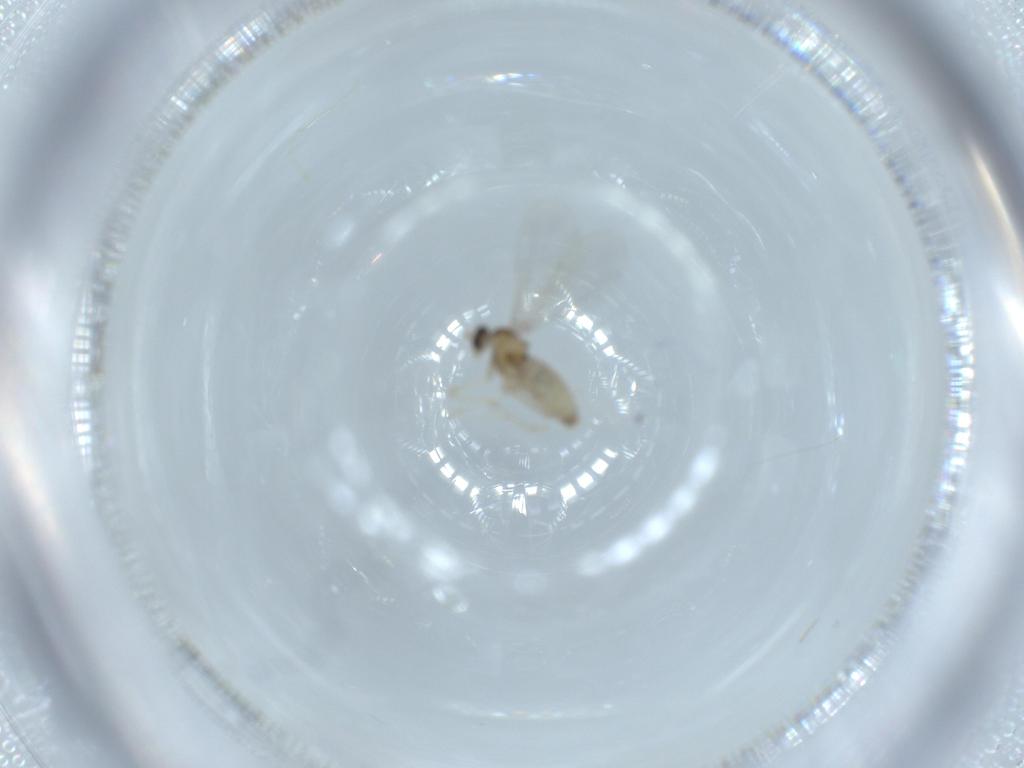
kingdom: Animalia
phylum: Arthropoda
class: Insecta
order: Diptera
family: Cecidomyiidae
